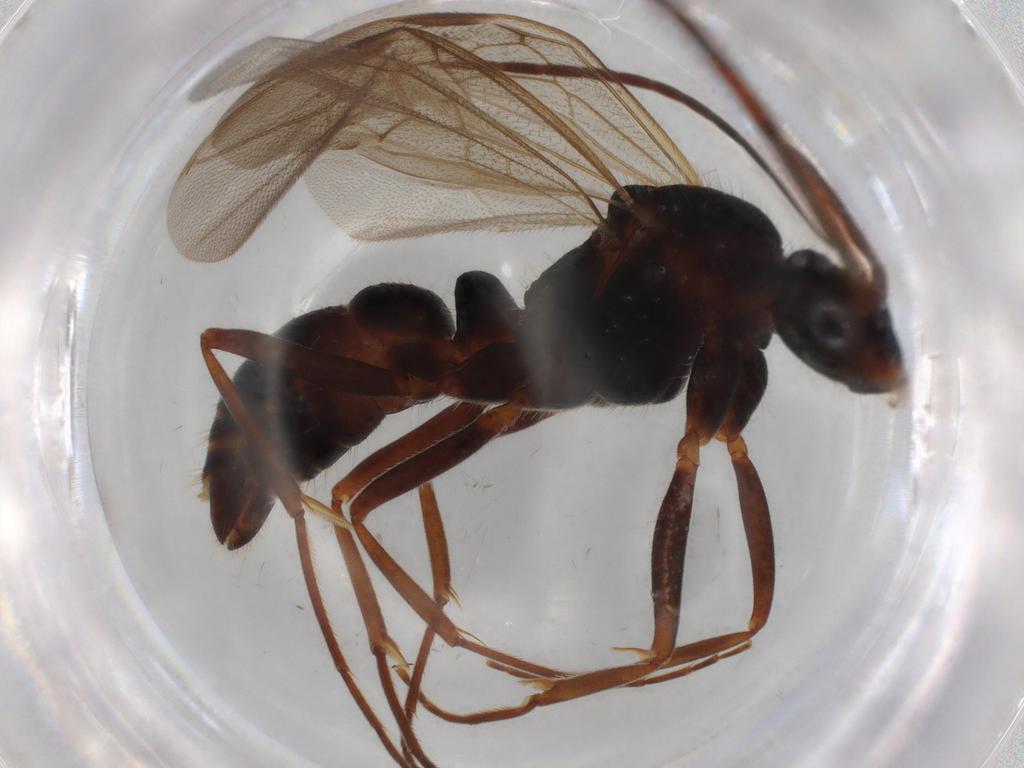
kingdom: Animalia
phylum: Arthropoda
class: Insecta
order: Hymenoptera
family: Formicidae
